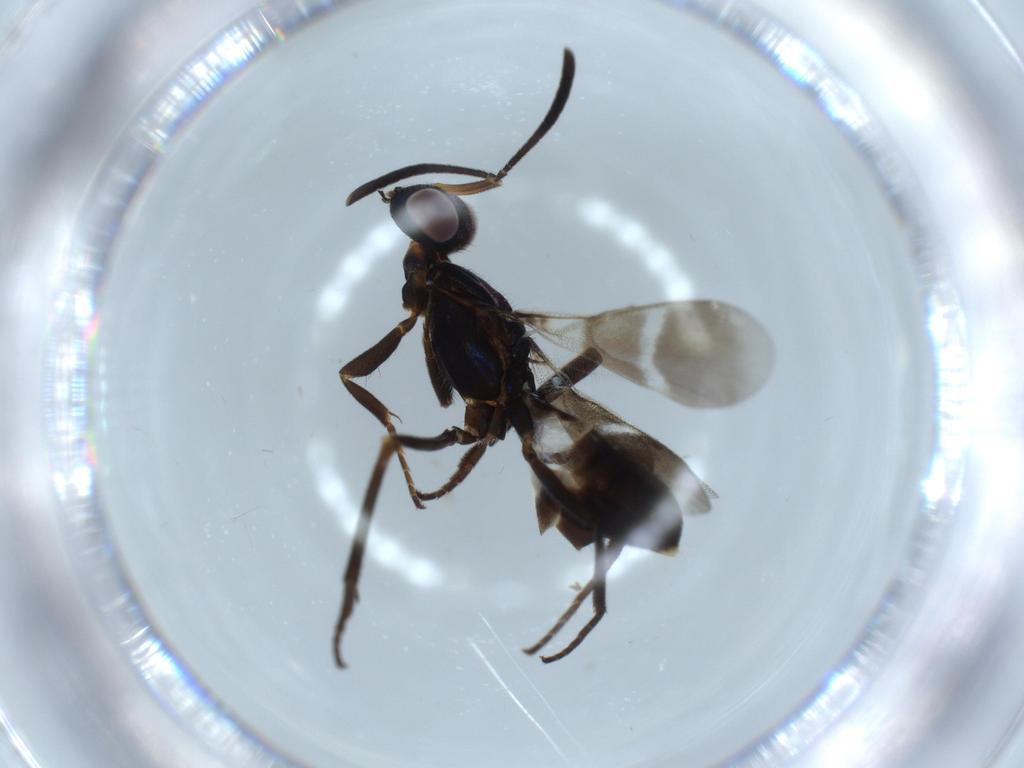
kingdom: Animalia
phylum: Arthropoda
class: Insecta
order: Hymenoptera
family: Eupelmidae
